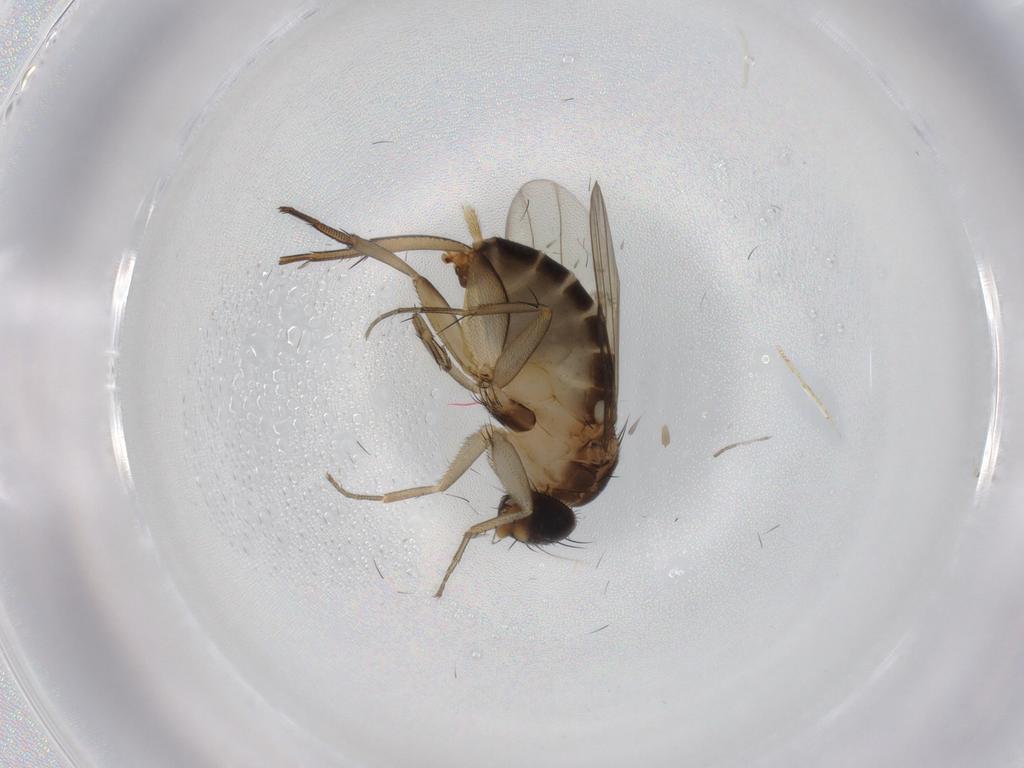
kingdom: Animalia
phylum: Arthropoda
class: Insecta
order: Diptera
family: Phoridae
